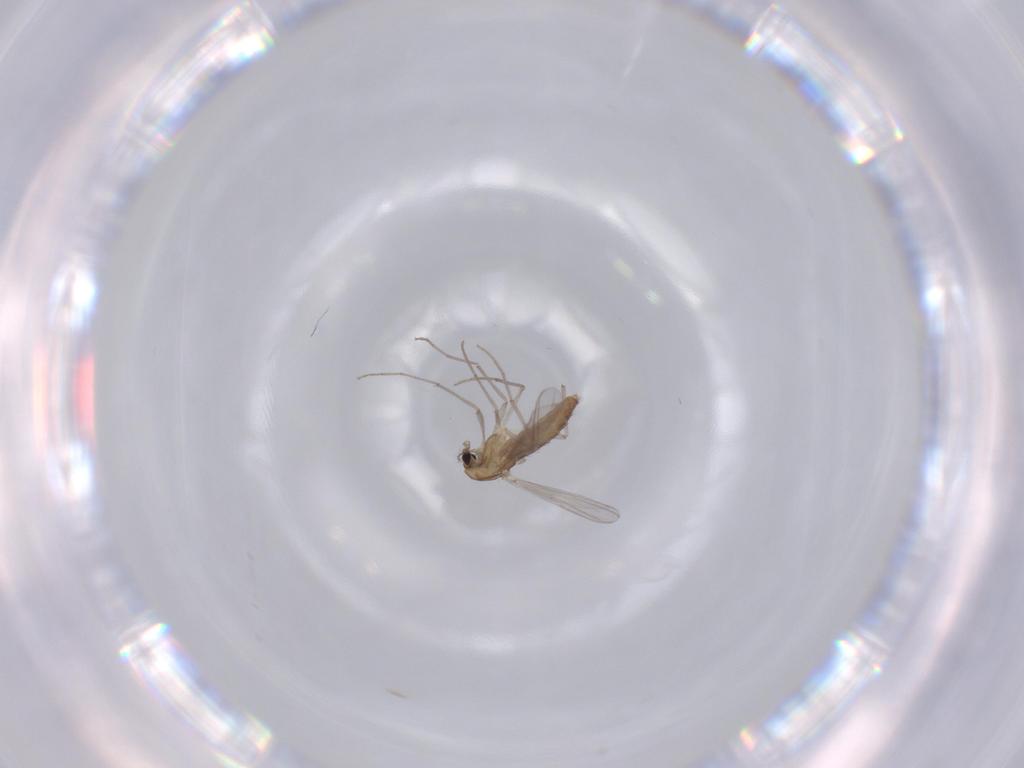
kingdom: Animalia
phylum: Arthropoda
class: Insecta
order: Diptera
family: Chironomidae
